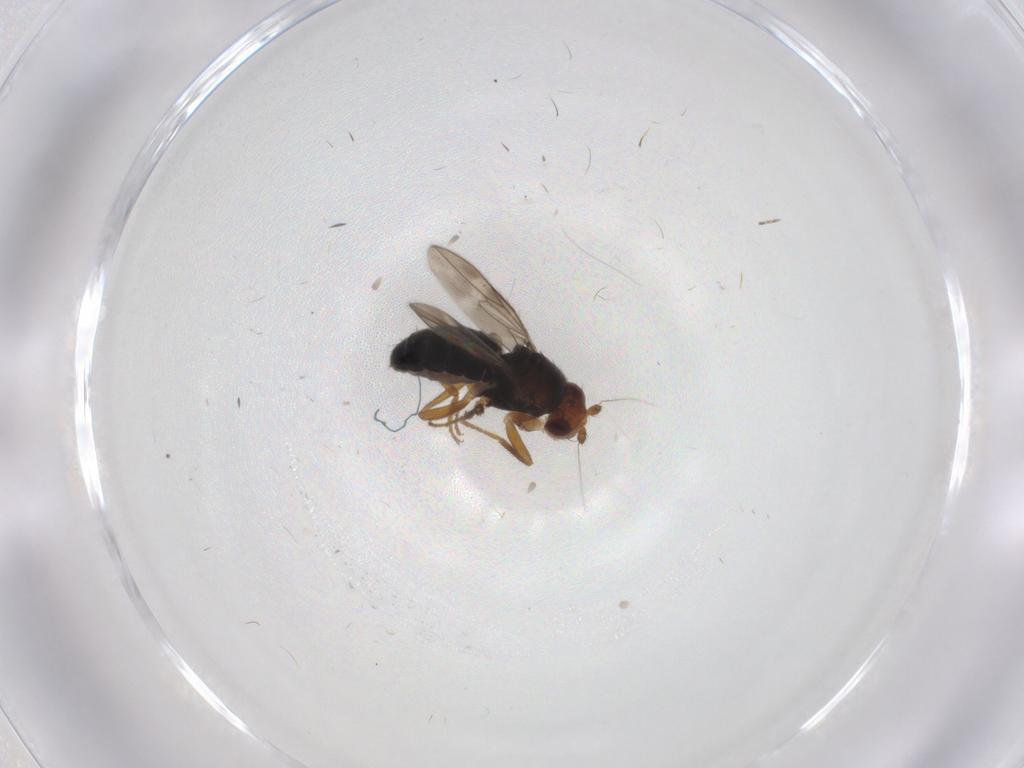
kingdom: Animalia
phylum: Arthropoda
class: Insecta
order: Diptera
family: Sphaeroceridae
